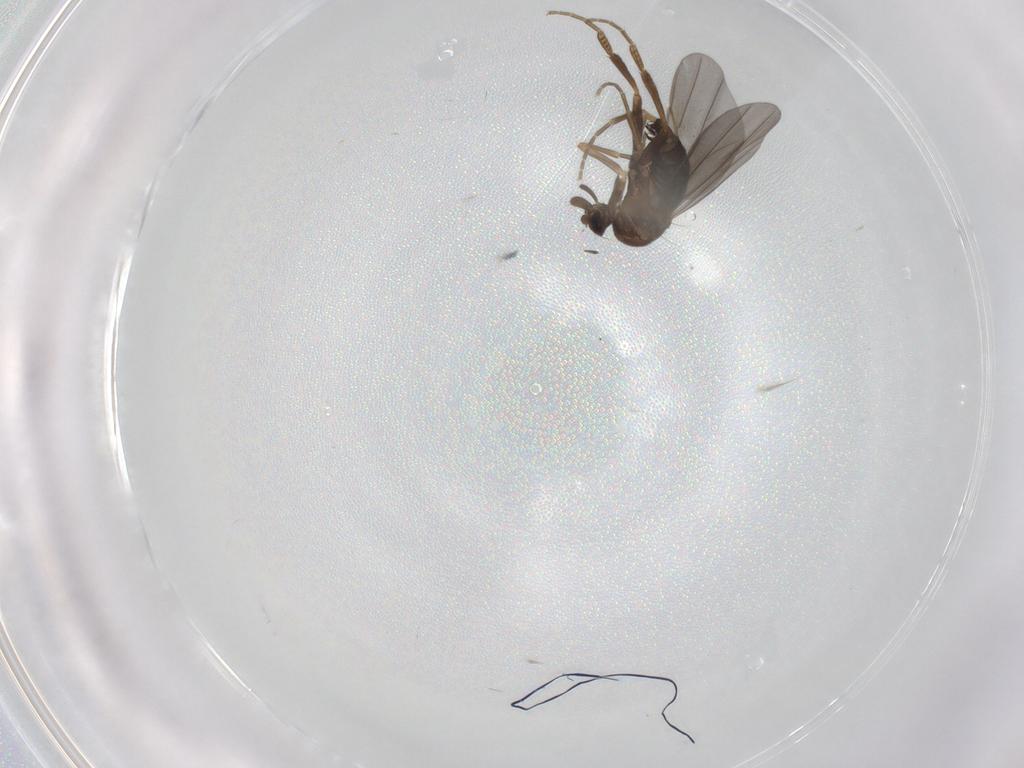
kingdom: Animalia
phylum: Arthropoda
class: Insecta
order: Diptera
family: Phoridae
